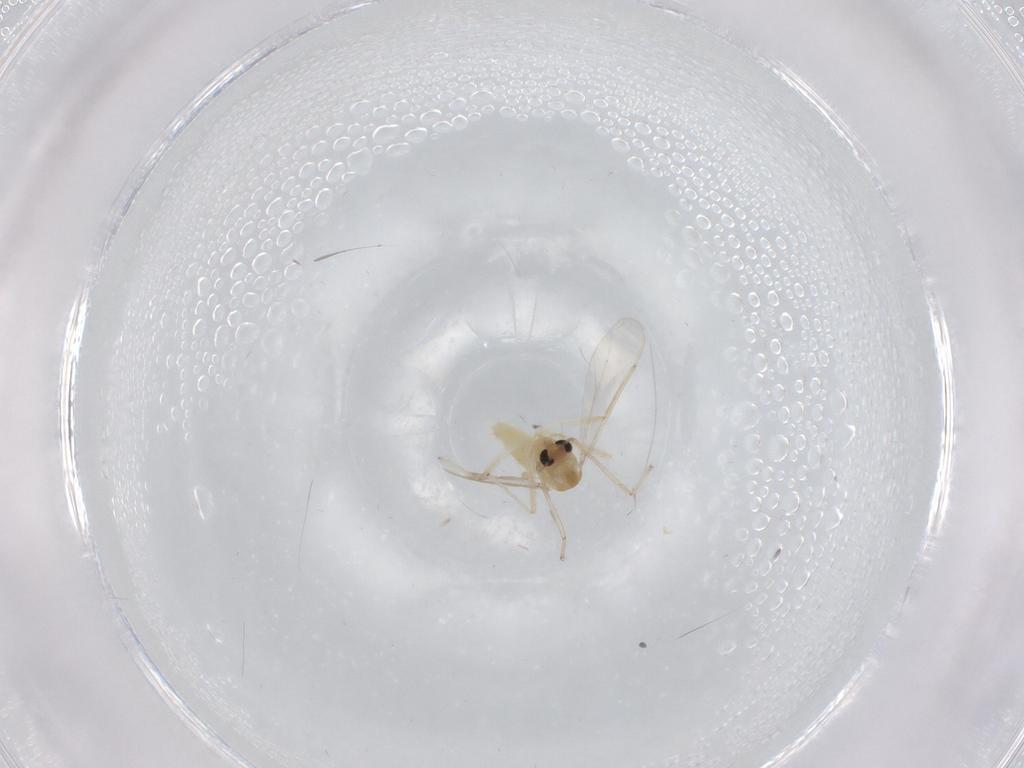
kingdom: Animalia
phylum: Arthropoda
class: Insecta
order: Diptera
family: Chironomidae
